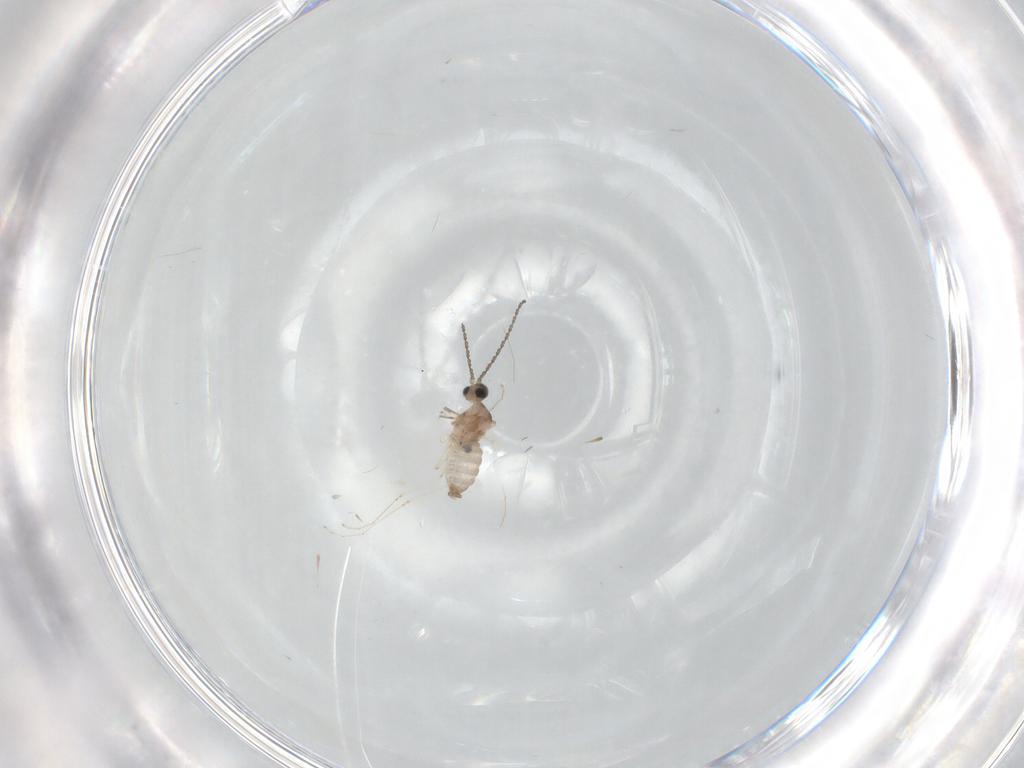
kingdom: Animalia
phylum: Arthropoda
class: Insecta
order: Diptera
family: Cecidomyiidae
